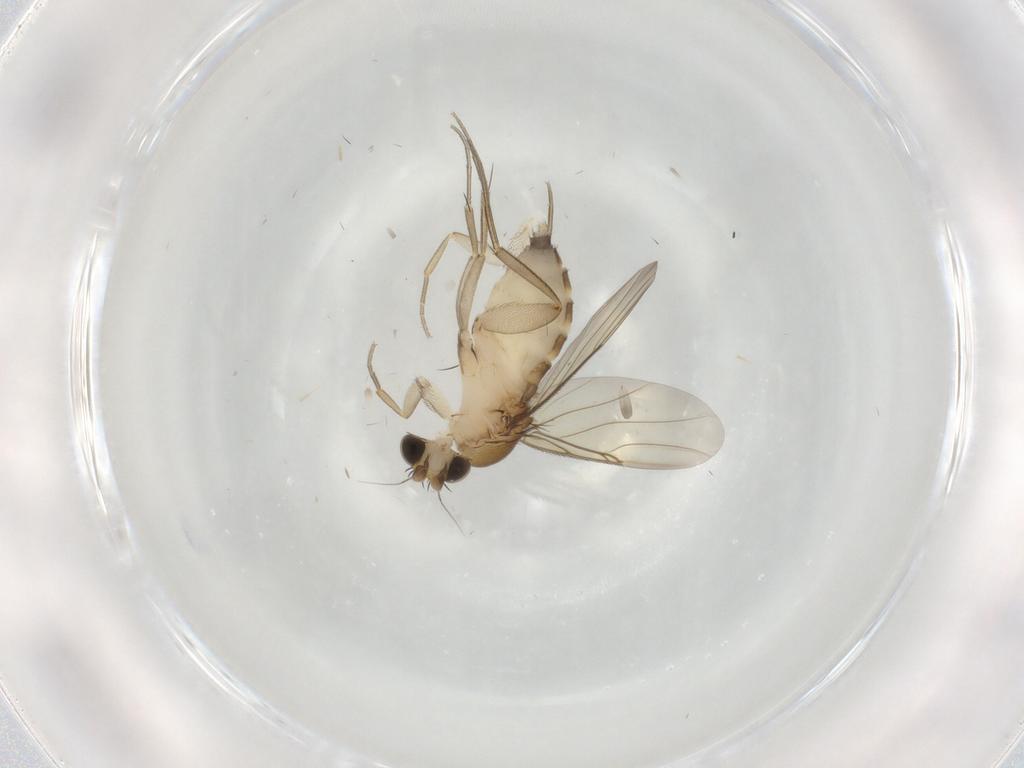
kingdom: Animalia
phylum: Arthropoda
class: Insecta
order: Diptera
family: Phoridae
